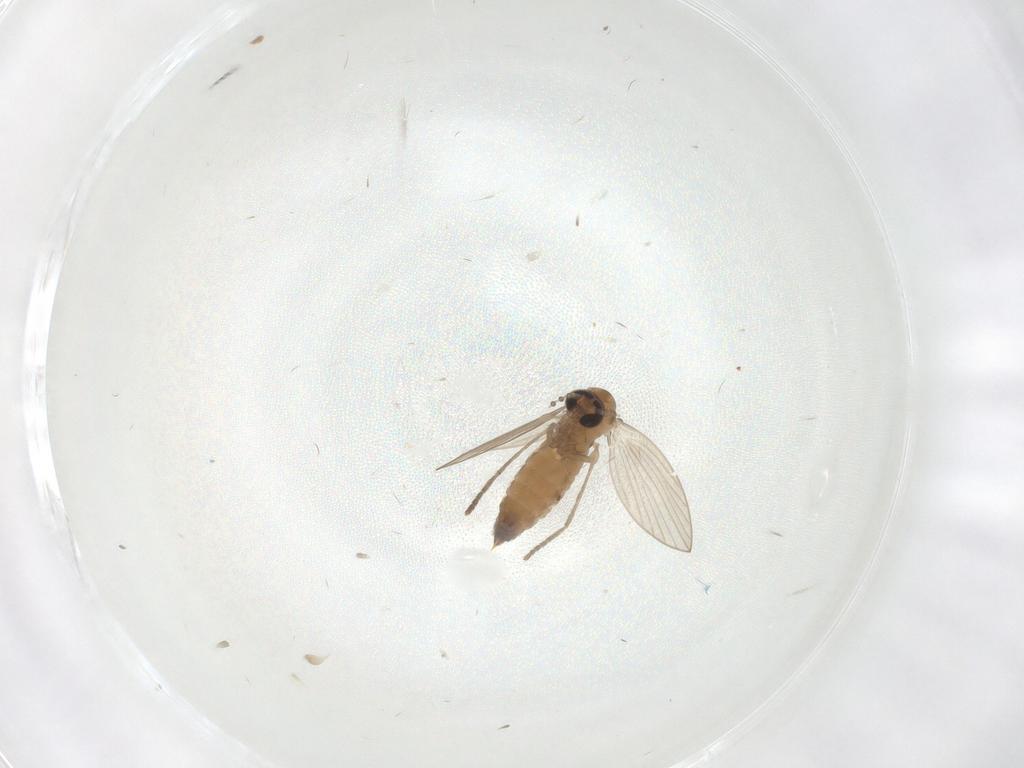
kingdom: Animalia
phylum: Arthropoda
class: Insecta
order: Diptera
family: Psychodidae
